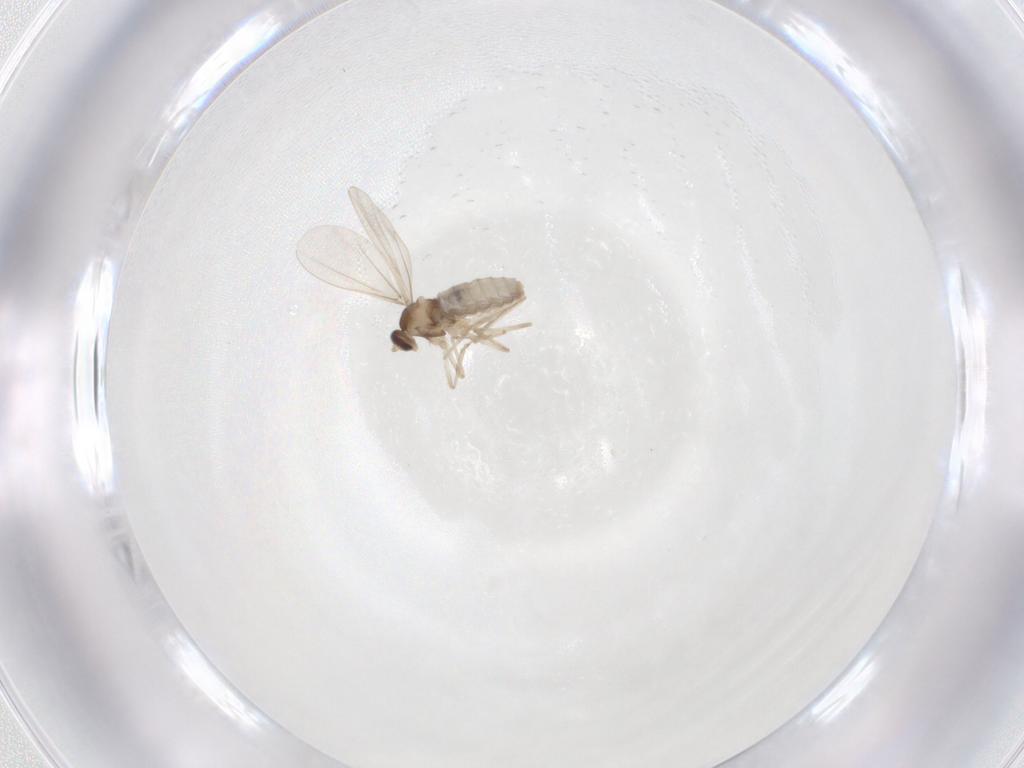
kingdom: Animalia
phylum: Arthropoda
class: Insecta
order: Diptera
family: Cecidomyiidae
